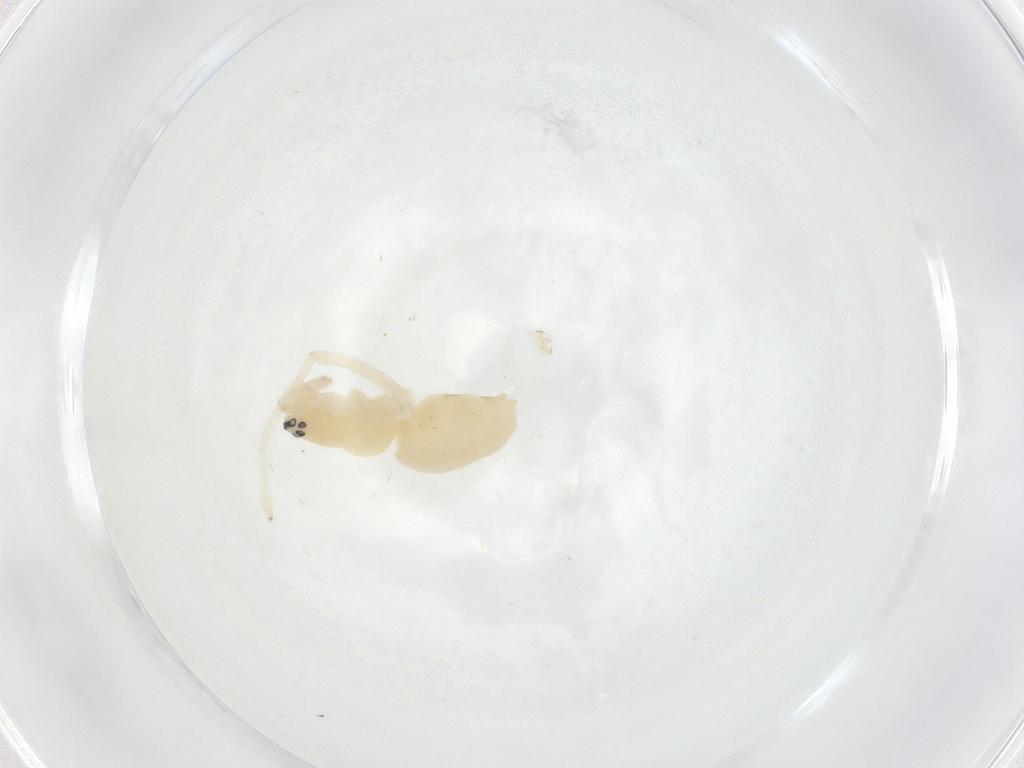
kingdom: Animalia
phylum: Arthropoda
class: Arachnida
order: Araneae
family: Anyphaenidae
